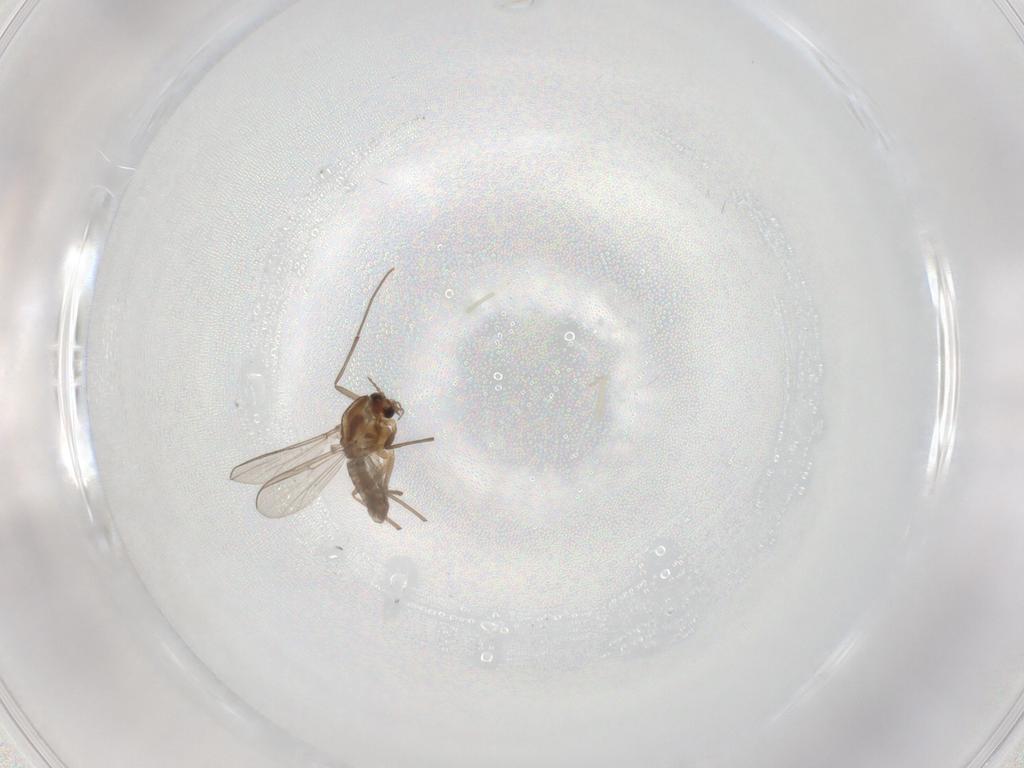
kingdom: Animalia
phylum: Arthropoda
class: Insecta
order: Diptera
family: Chironomidae
